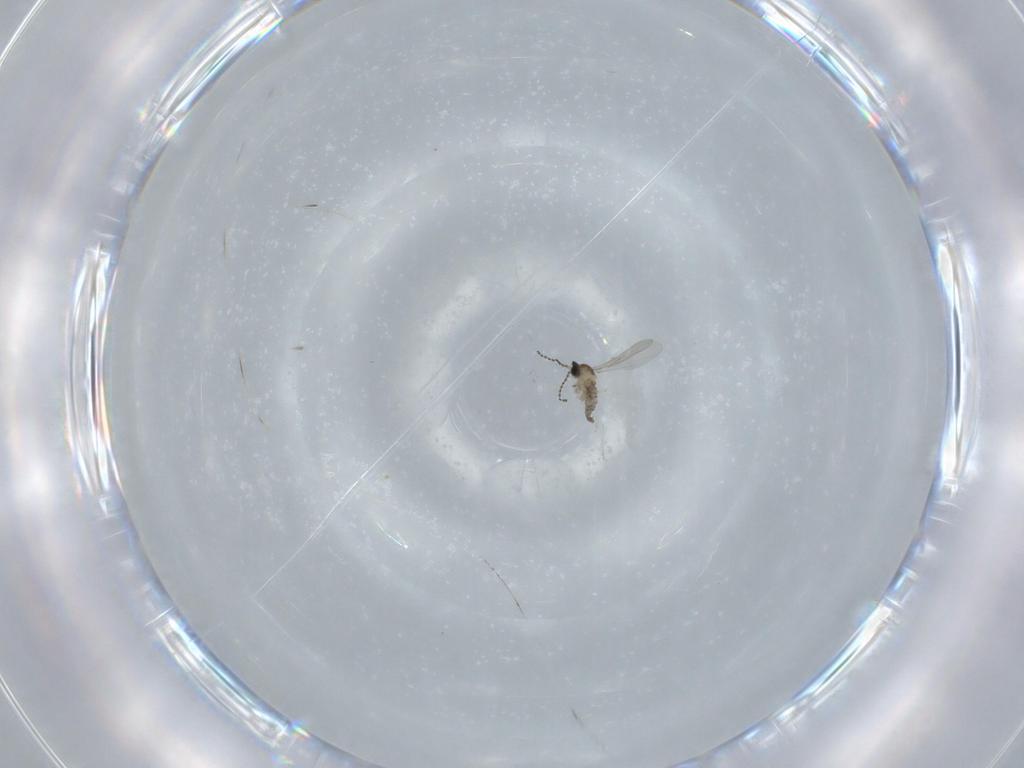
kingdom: Animalia
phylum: Arthropoda
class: Insecta
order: Diptera
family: Cecidomyiidae
